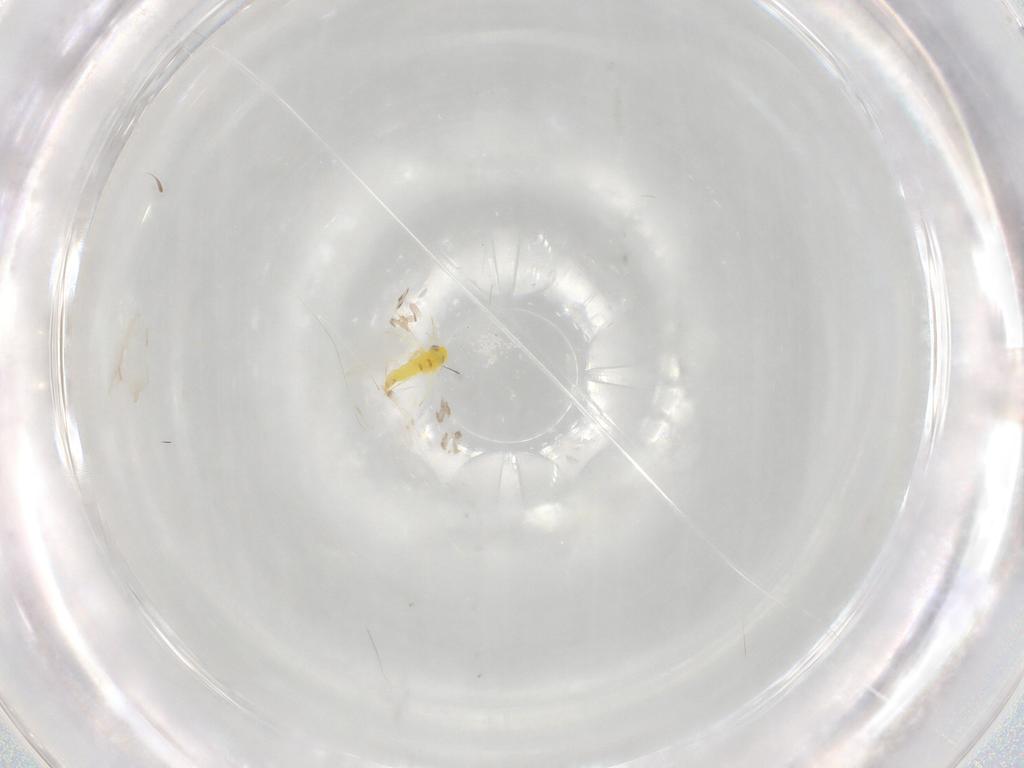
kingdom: Animalia
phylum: Arthropoda
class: Insecta
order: Hemiptera
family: Aleyrodidae
